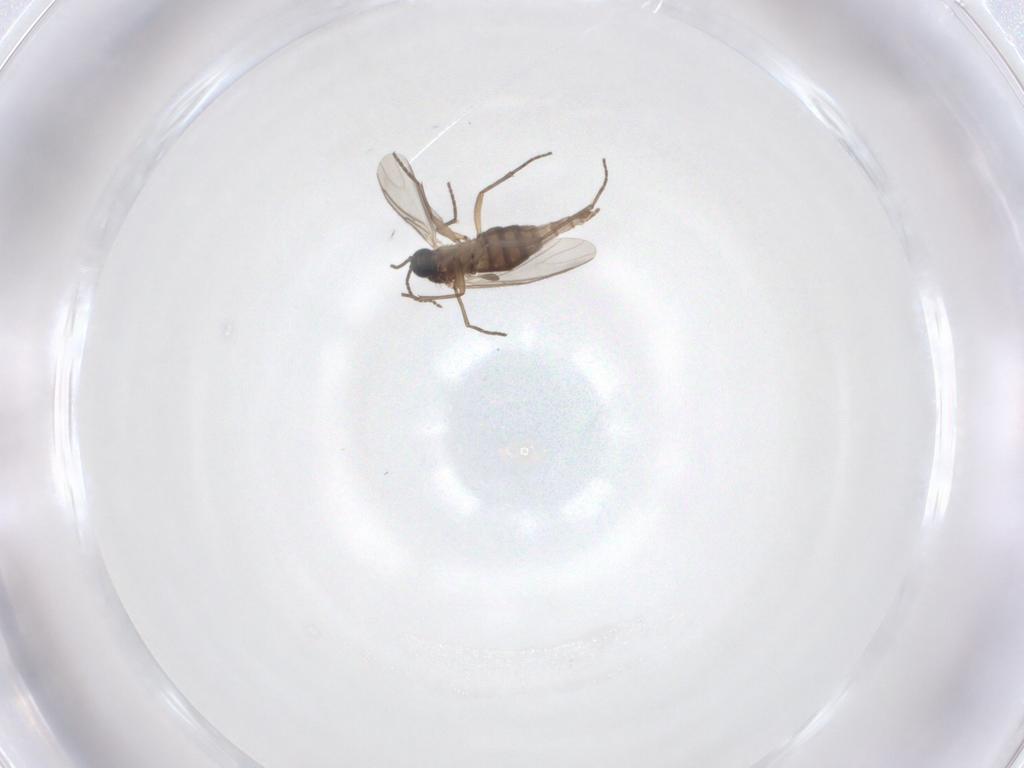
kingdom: Animalia
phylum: Arthropoda
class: Insecta
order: Diptera
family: Sciaridae
